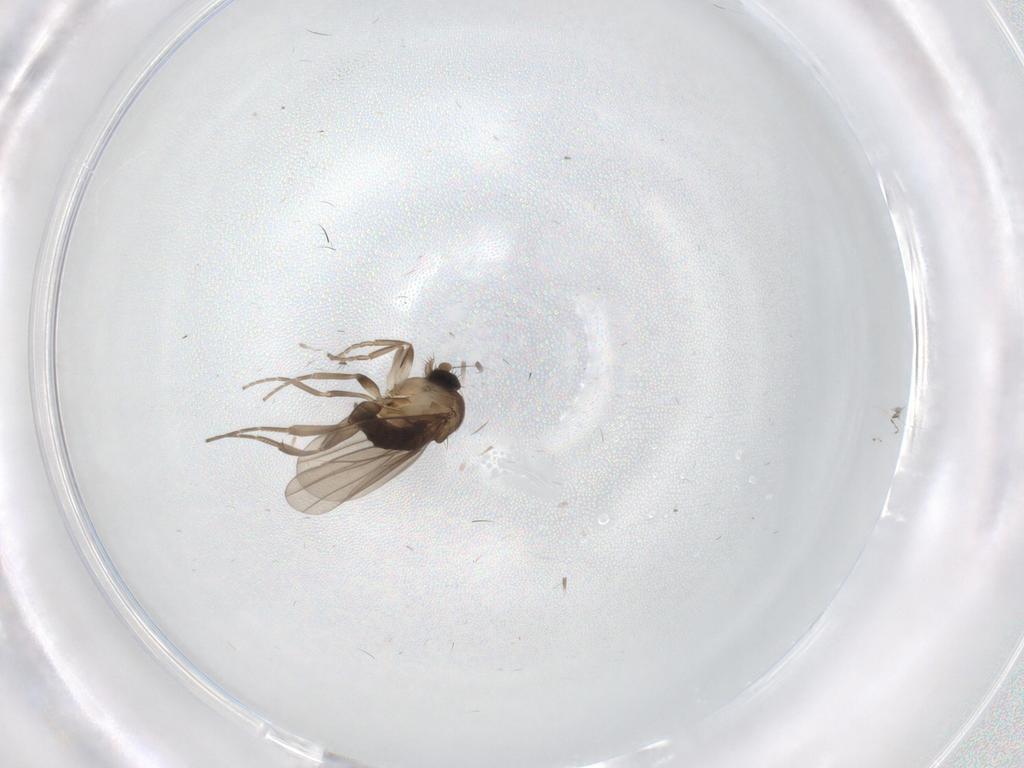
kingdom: Animalia
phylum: Arthropoda
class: Insecta
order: Diptera
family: Chironomidae
